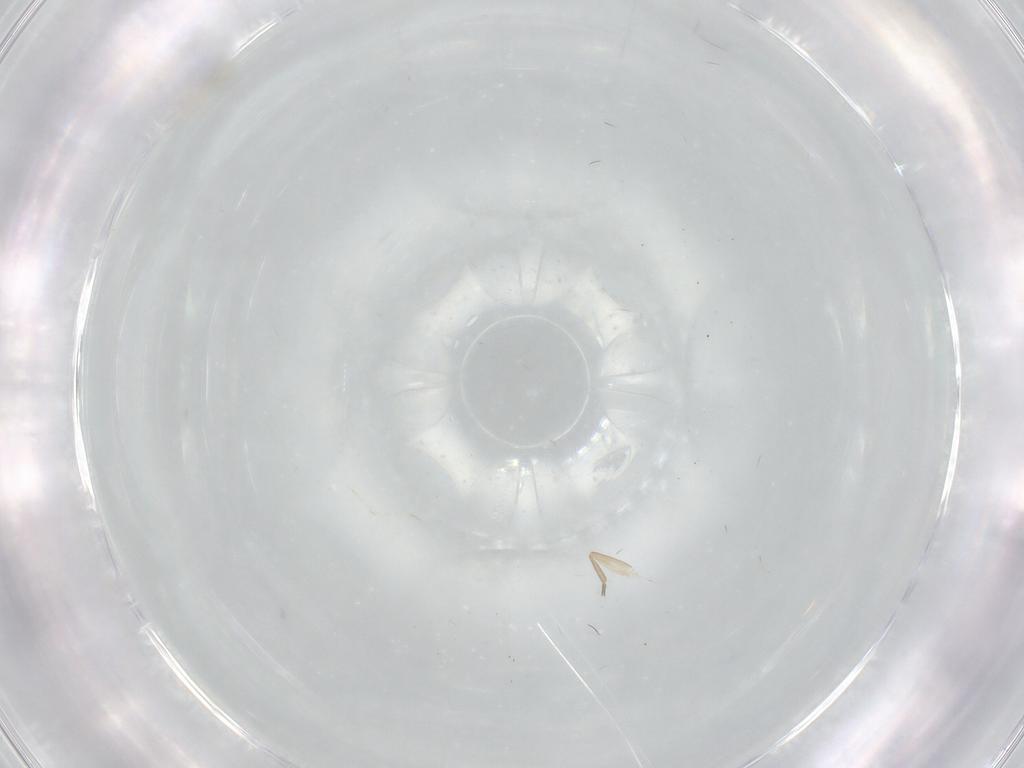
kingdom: Animalia
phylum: Arthropoda
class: Insecta
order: Diptera
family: Cecidomyiidae
